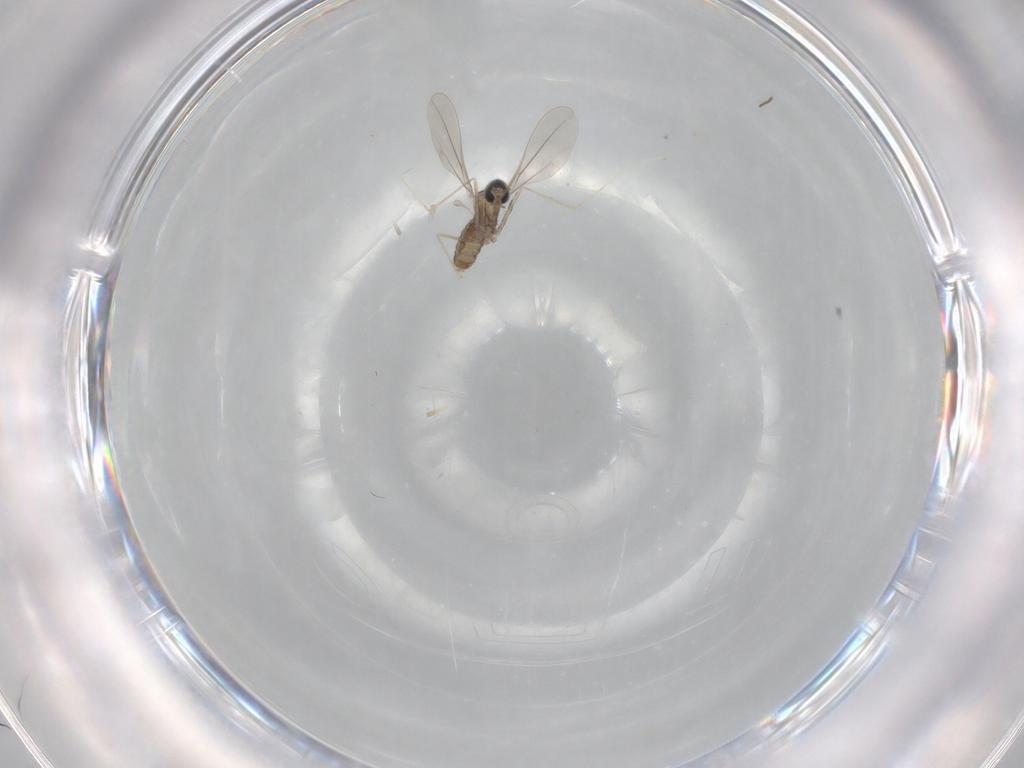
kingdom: Animalia
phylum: Arthropoda
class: Insecta
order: Diptera
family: Cecidomyiidae
